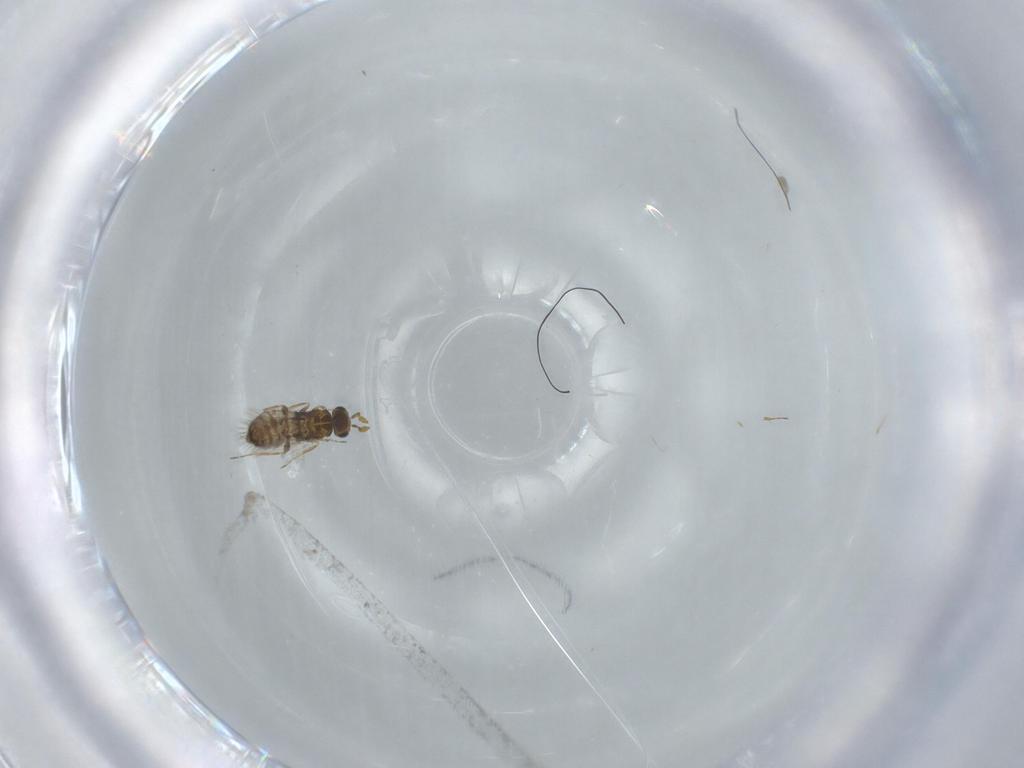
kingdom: Animalia
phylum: Arthropoda
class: Insecta
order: Hymenoptera
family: Trichogrammatidae
